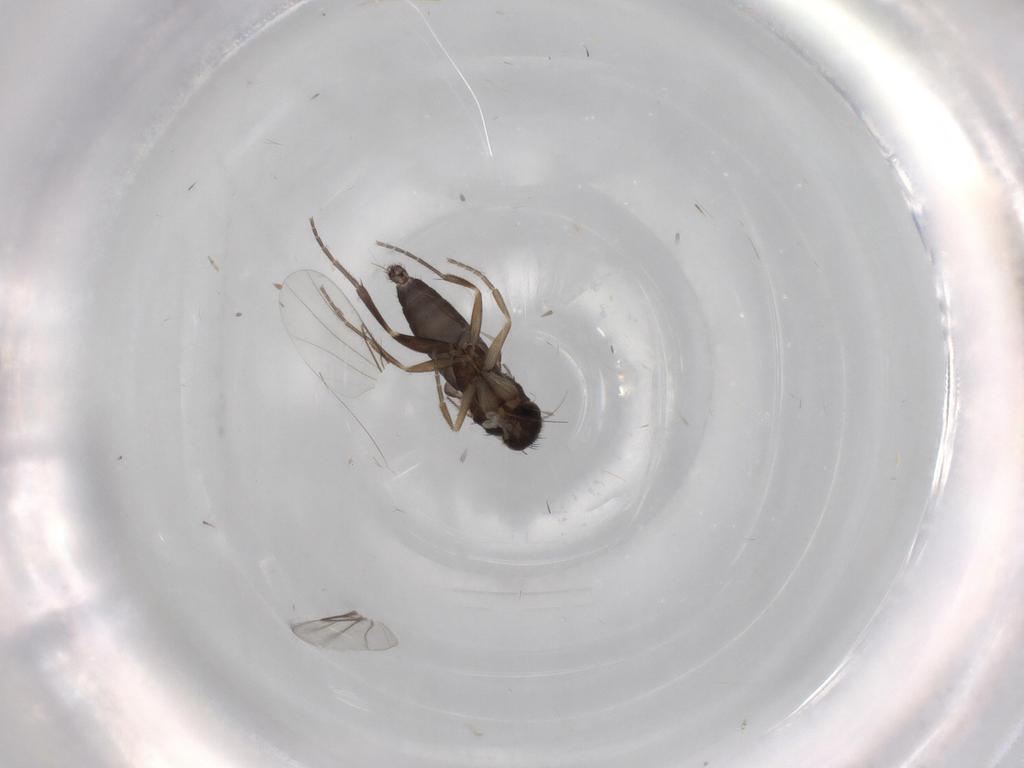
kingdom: Animalia
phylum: Arthropoda
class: Insecta
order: Diptera
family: Phoridae
